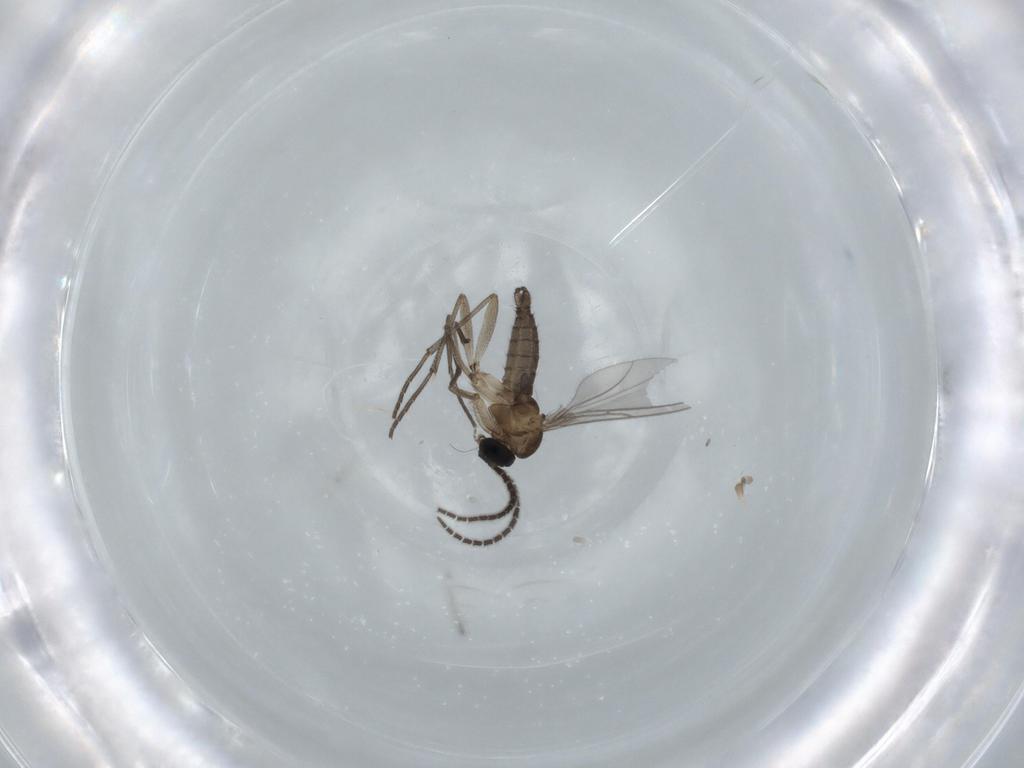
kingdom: Animalia
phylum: Arthropoda
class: Insecta
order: Diptera
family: Sciaridae
